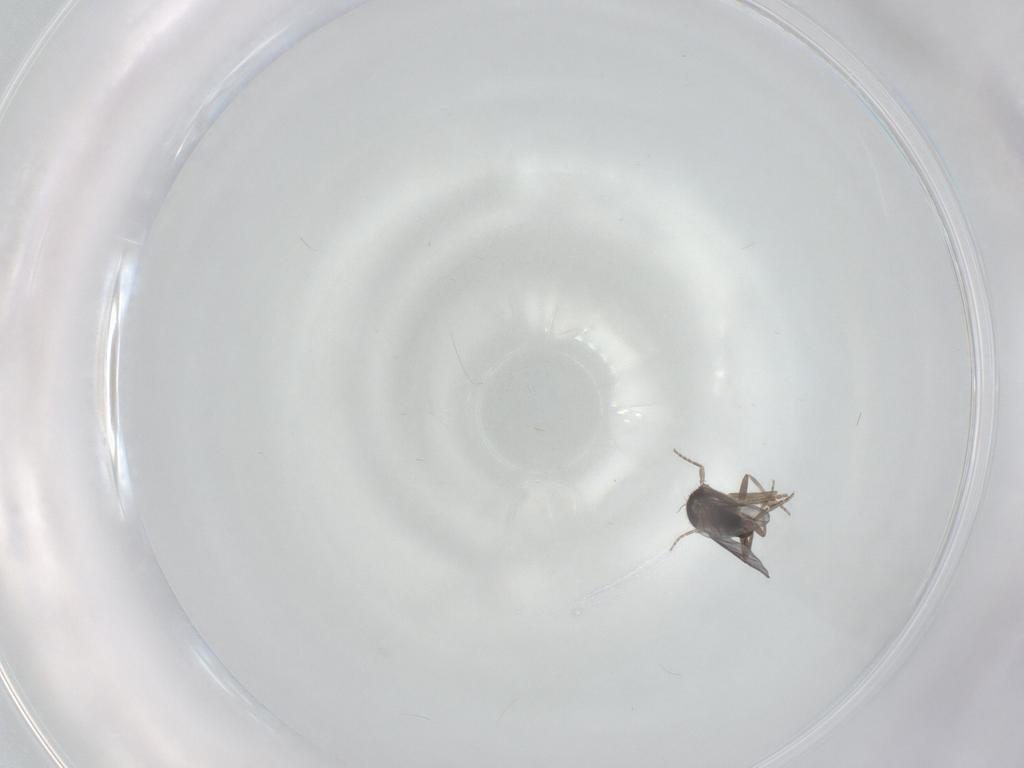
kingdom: Animalia
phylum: Arthropoda
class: Insecta
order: Diptera
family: Phoridae
